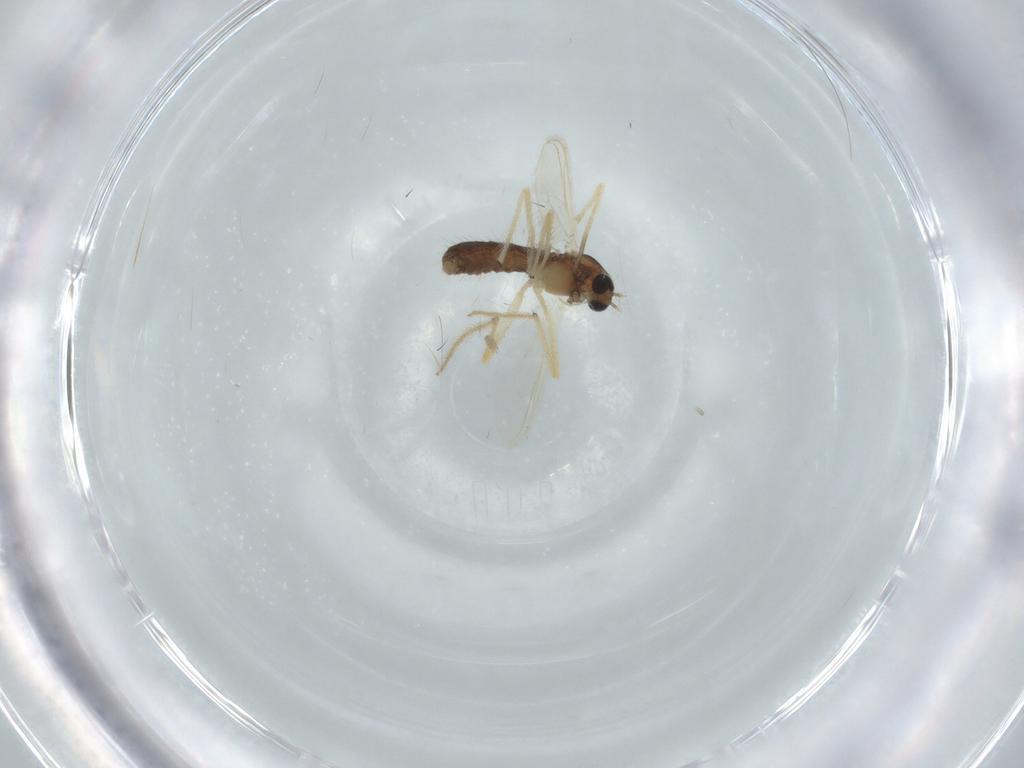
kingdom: Animalia
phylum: Arthropoda
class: Insecta
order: Diptera
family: Chironomidae
